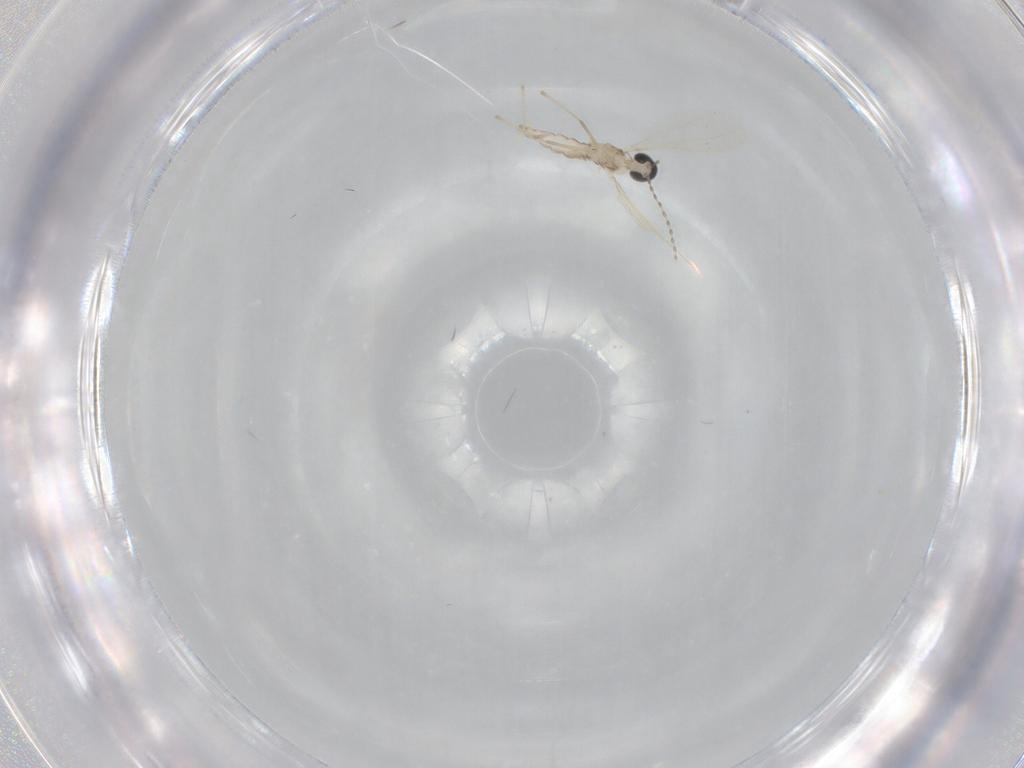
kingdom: Animalia
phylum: Arthropoda
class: Insecta
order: Diptera
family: Cecidomyiidae
